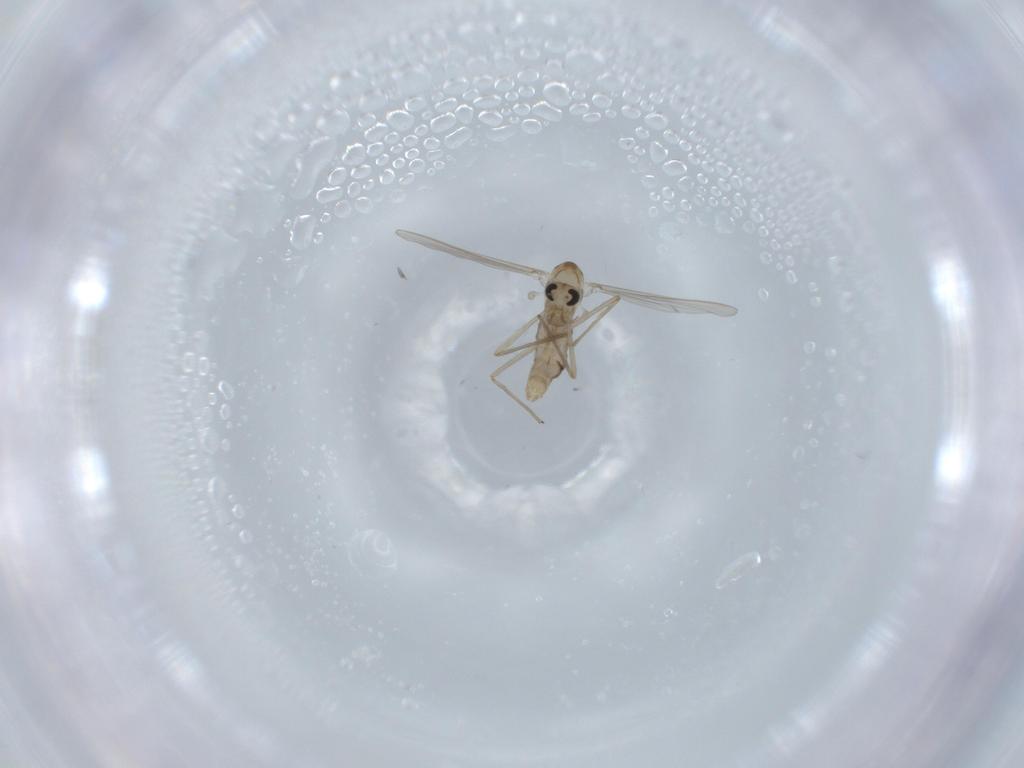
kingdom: Animalia
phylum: Arthropoda
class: Insecta
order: Diptera
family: Chironomidae
